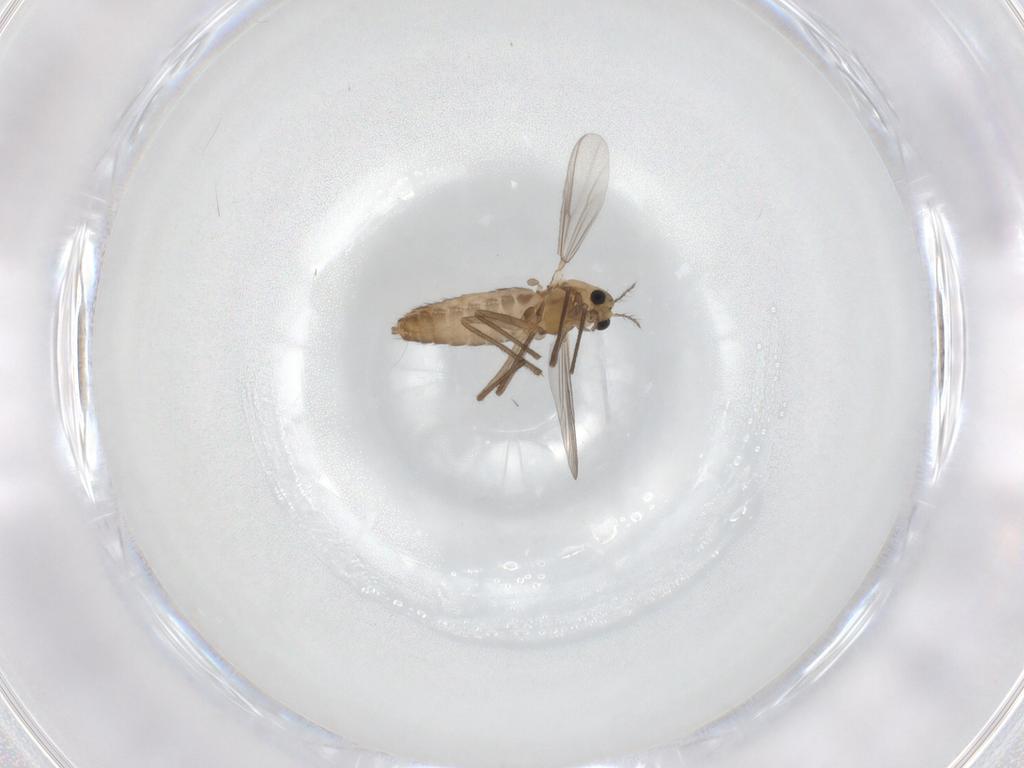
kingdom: Animalia
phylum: Arthropoda
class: Insecta
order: Diptera
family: Chironomidae
